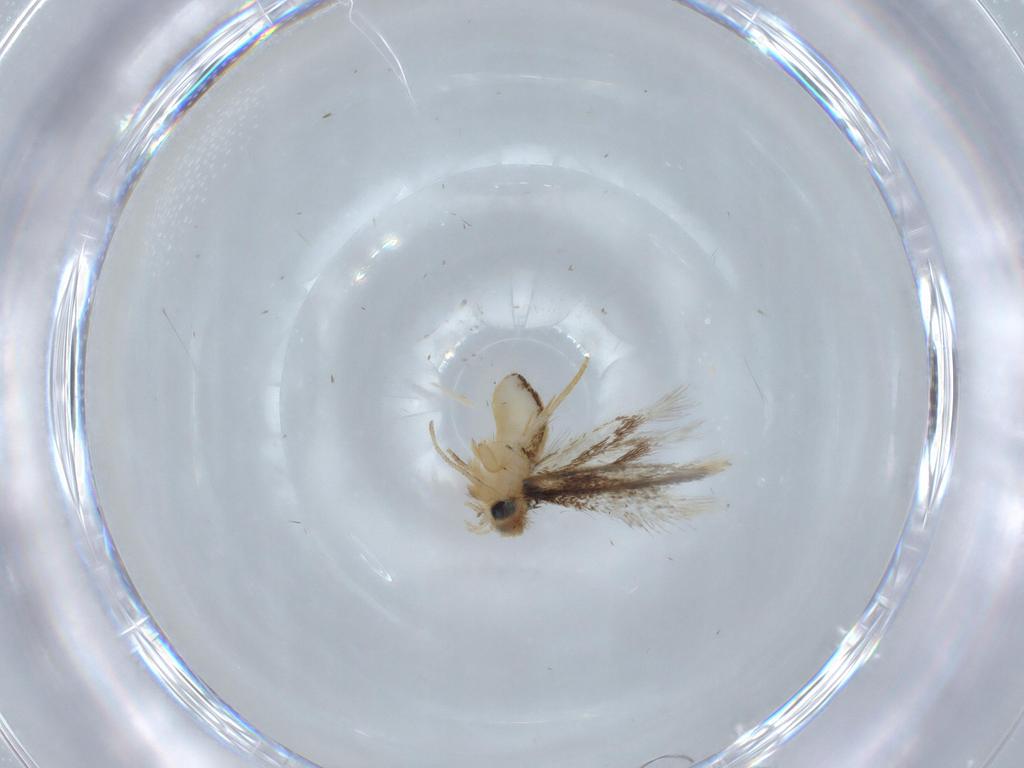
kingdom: Animalia
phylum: Arthropoda
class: Insecta
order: Lepidoptera
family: Nepticulidae
